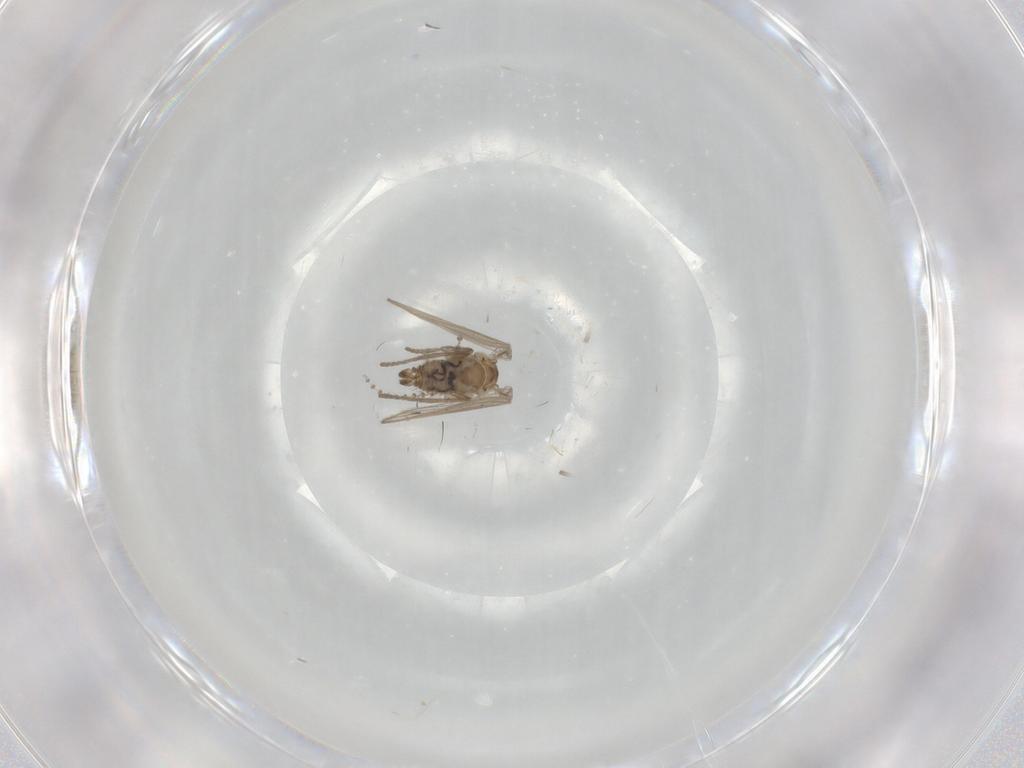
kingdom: Animalia
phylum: Arthropoda
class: Insecta
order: Diptera
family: Psychodidae
